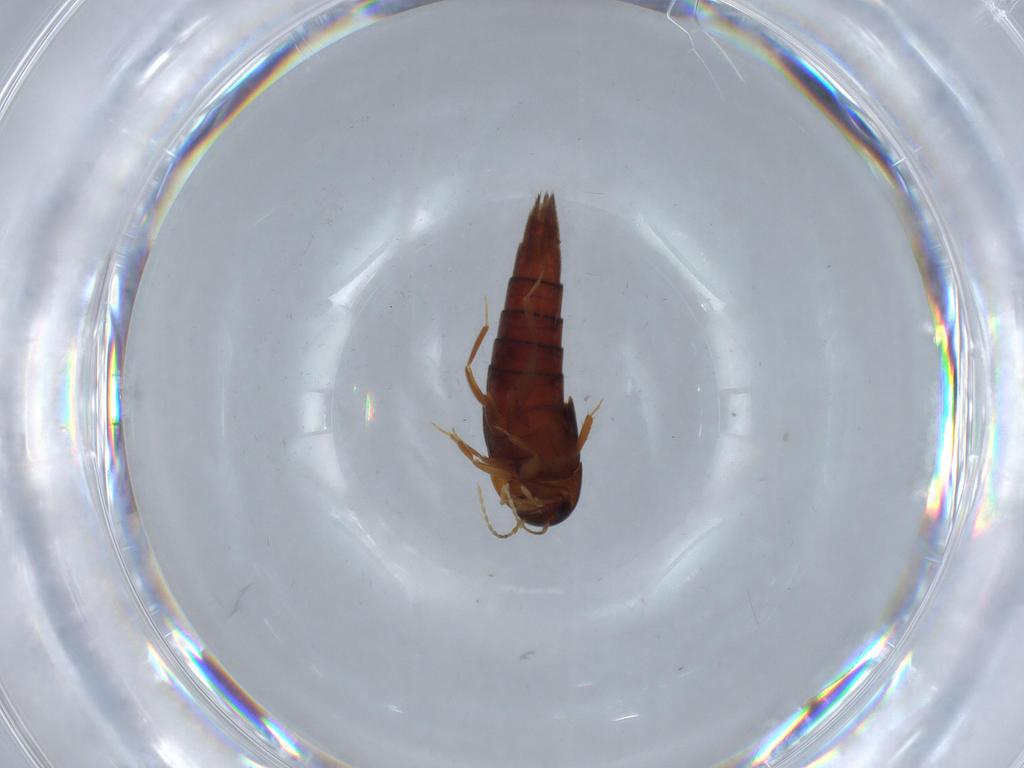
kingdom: Animalia
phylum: Arthropoda
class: Insecta
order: Coleoptera
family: Staphylinidae
